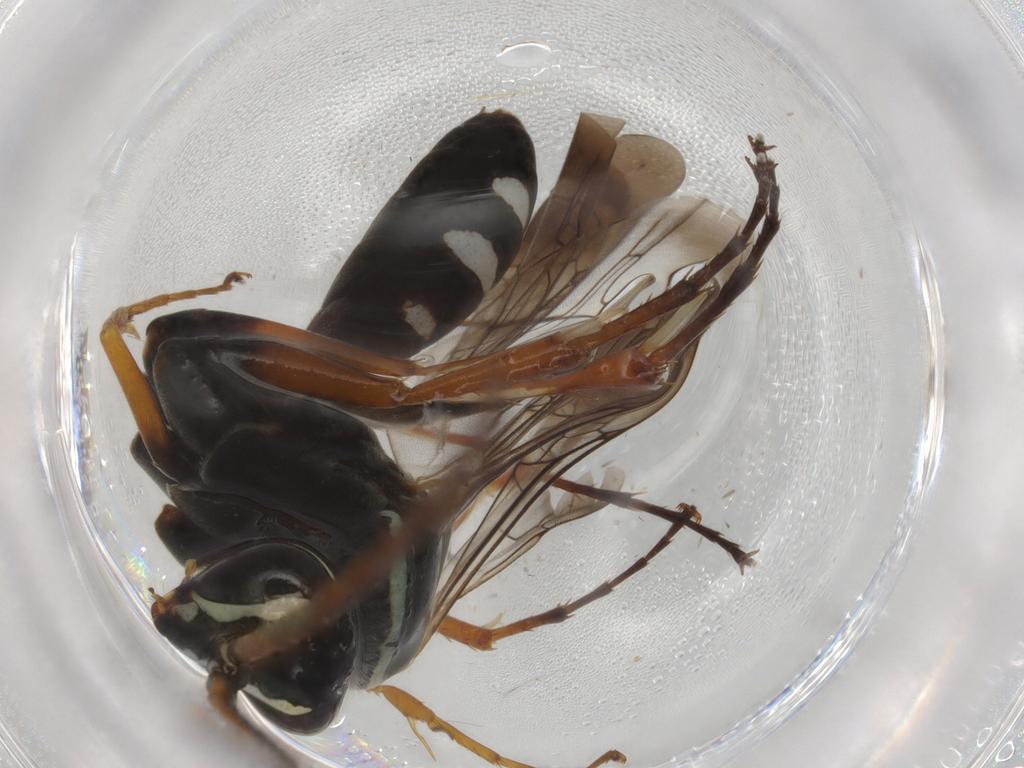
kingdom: Animalia
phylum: Arthropoda
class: Insecta
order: Hymenoptera
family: Pompilidae
